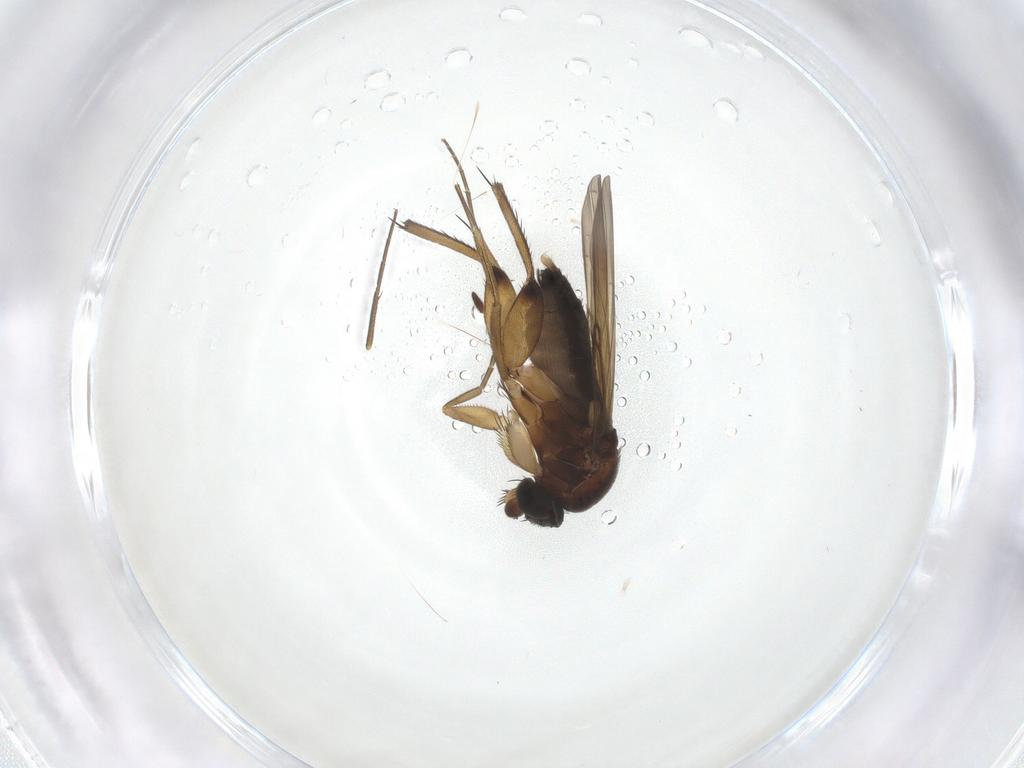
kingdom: Animalia
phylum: Arthropoda
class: Insecta
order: Diptera
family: Phoridae
